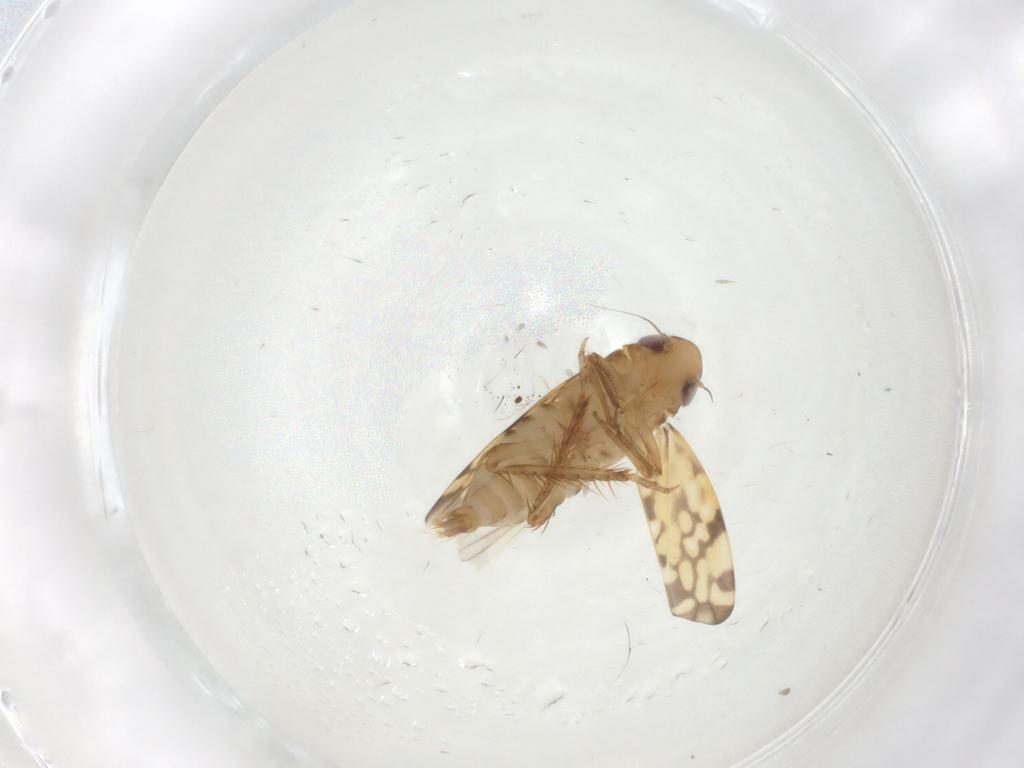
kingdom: Animalia
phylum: Arthropoda
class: Insecta
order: Hemiptera
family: Cicadellidae
